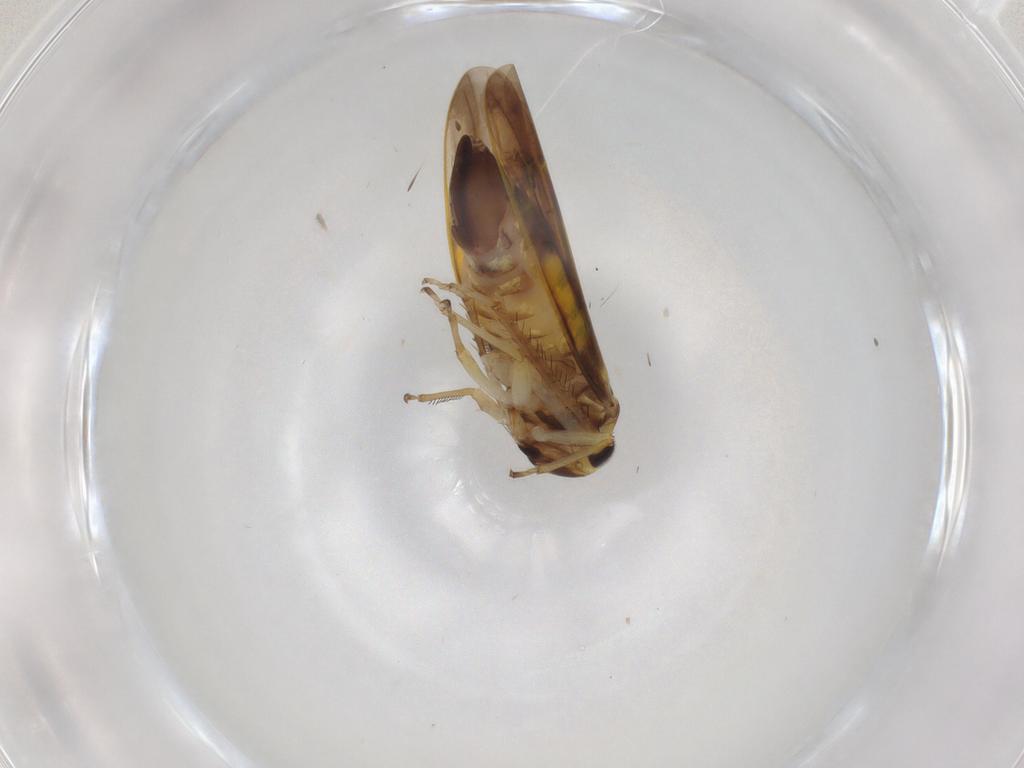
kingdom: Animalia
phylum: Arthropoda
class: Insecta
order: Hemiptera
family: Cicadellidae
